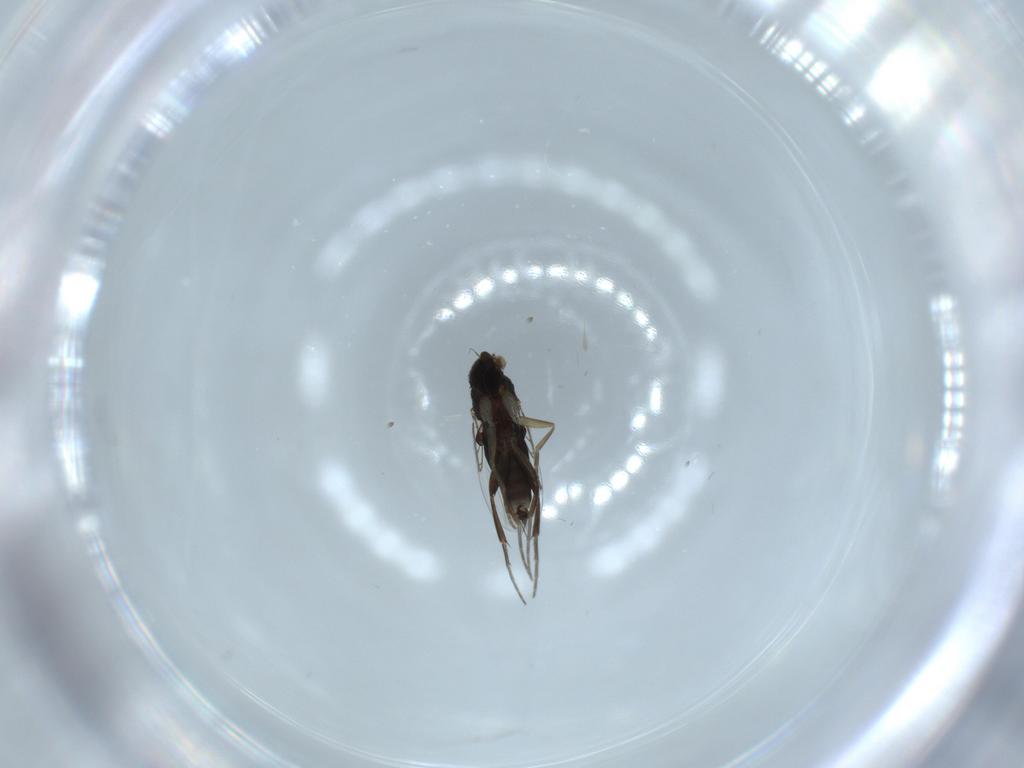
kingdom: Animalia
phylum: Arthropoda
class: Insecta
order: Diptera
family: Phoridae
